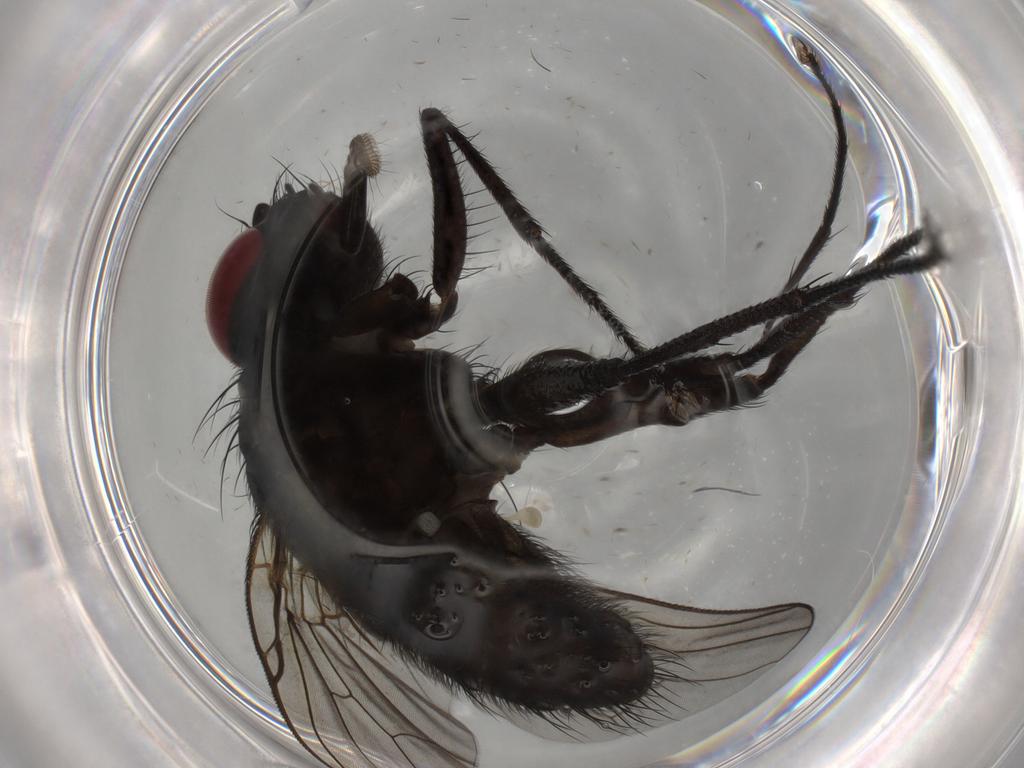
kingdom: Animalia
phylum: Arthropoda
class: Insecta
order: Diptera
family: Muscidae
